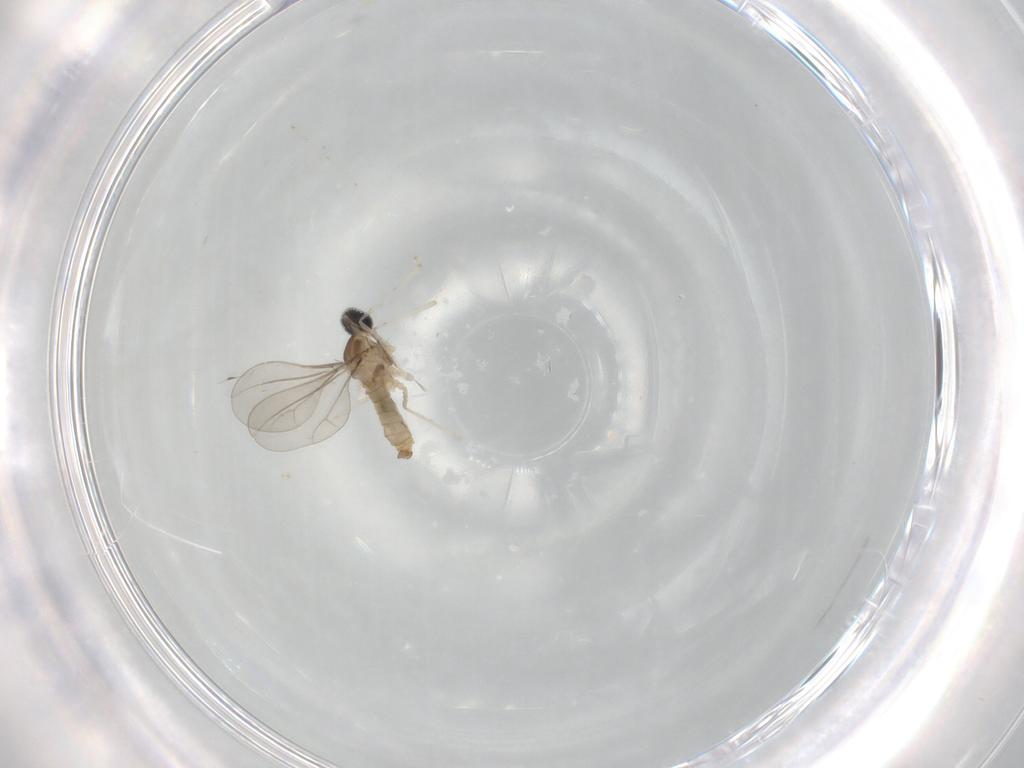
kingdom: Animalia
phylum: Arthropoda
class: Insecta
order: Diptera
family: Cecidomyiidae
